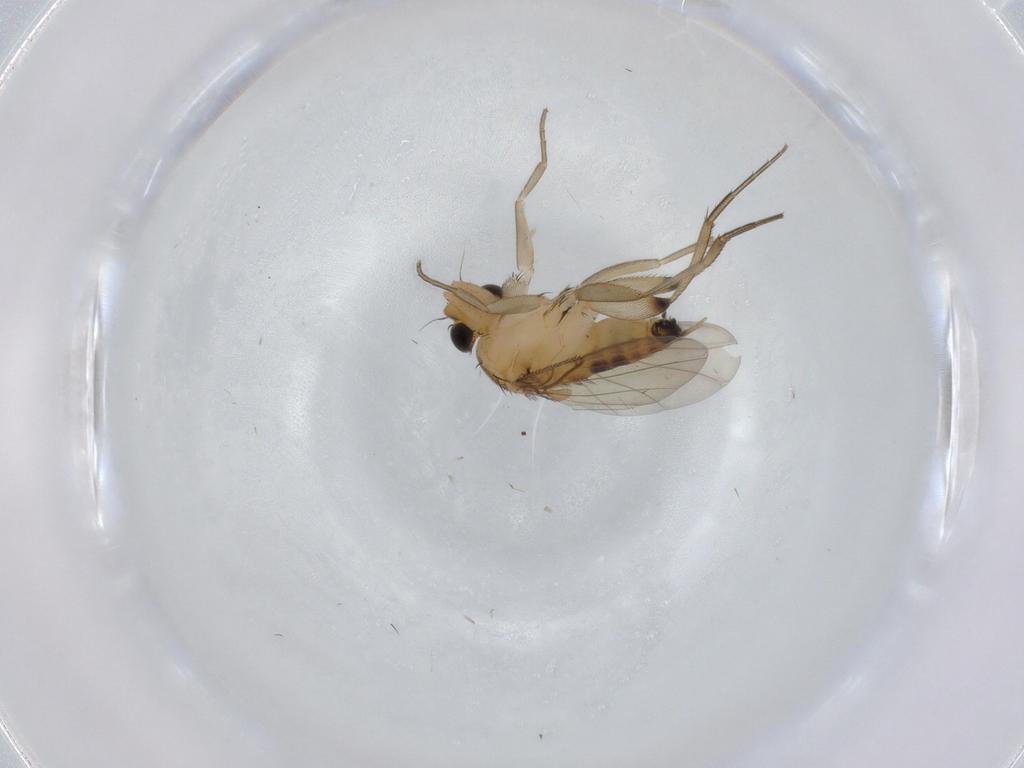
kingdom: Animalia
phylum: Arthropoda
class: Insecta
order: Diptera
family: Phoridae
